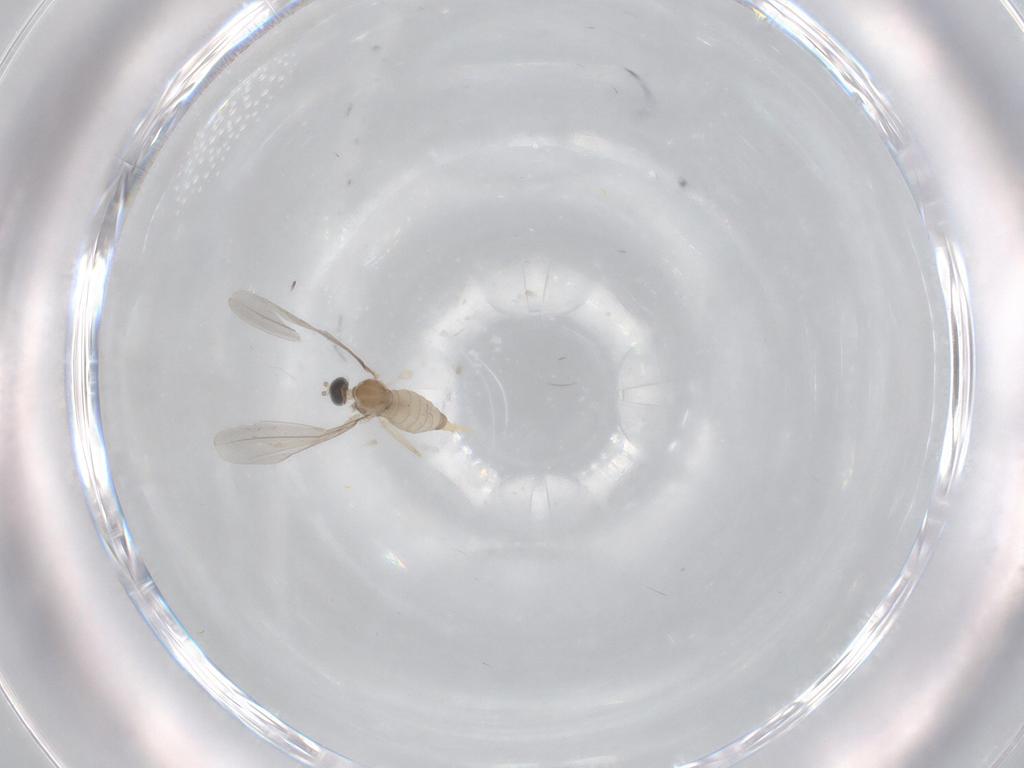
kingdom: Animalia
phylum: Arthropoda
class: Insecta
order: Diptera
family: Cecidomyiidae
